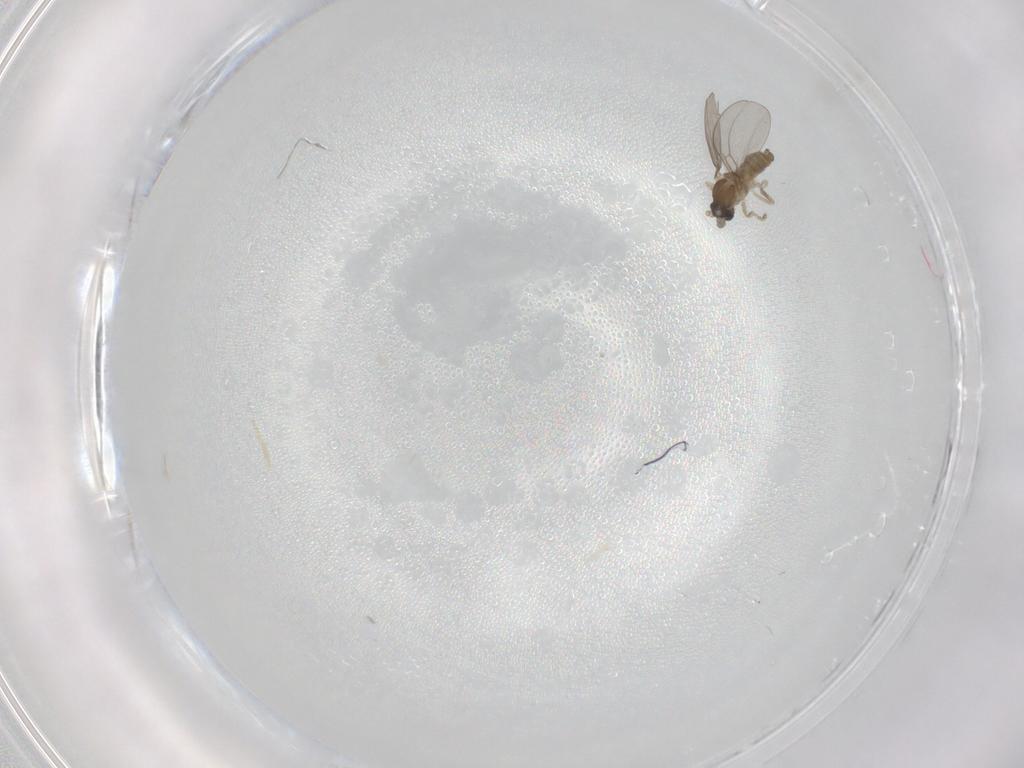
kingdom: Animalia
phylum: Arthropoda
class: Insecta
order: Diptera
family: Cecidomyiidae
